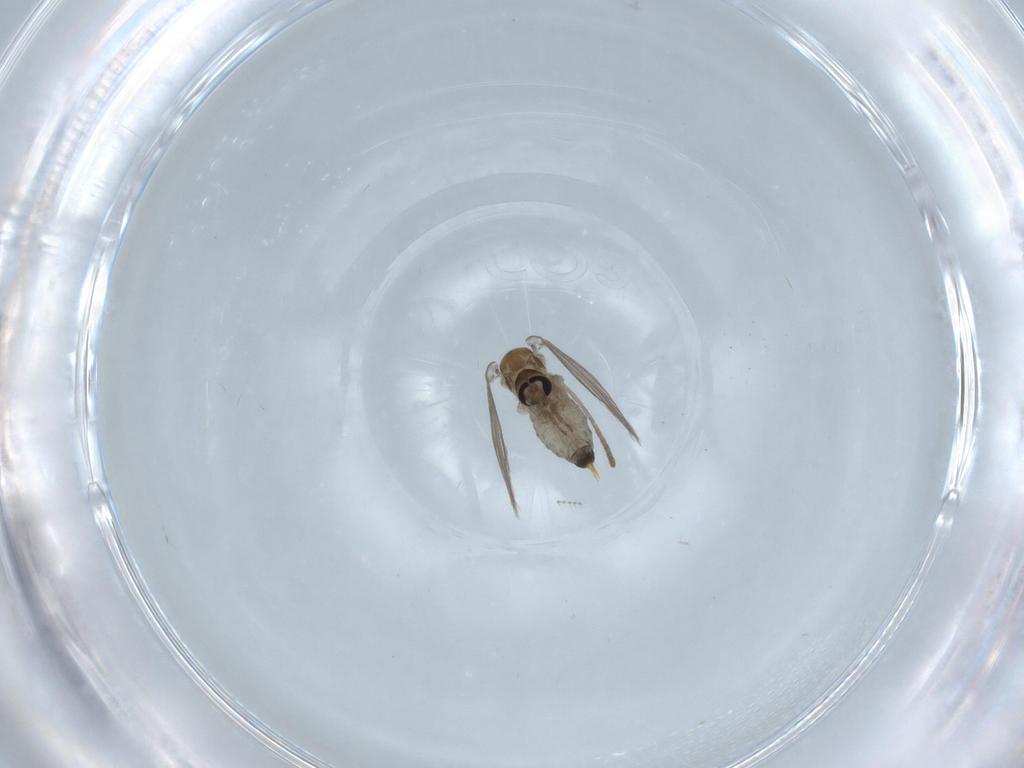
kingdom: Animalia
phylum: Arthropoda
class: Insecta
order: Diptera
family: Psychodidae
